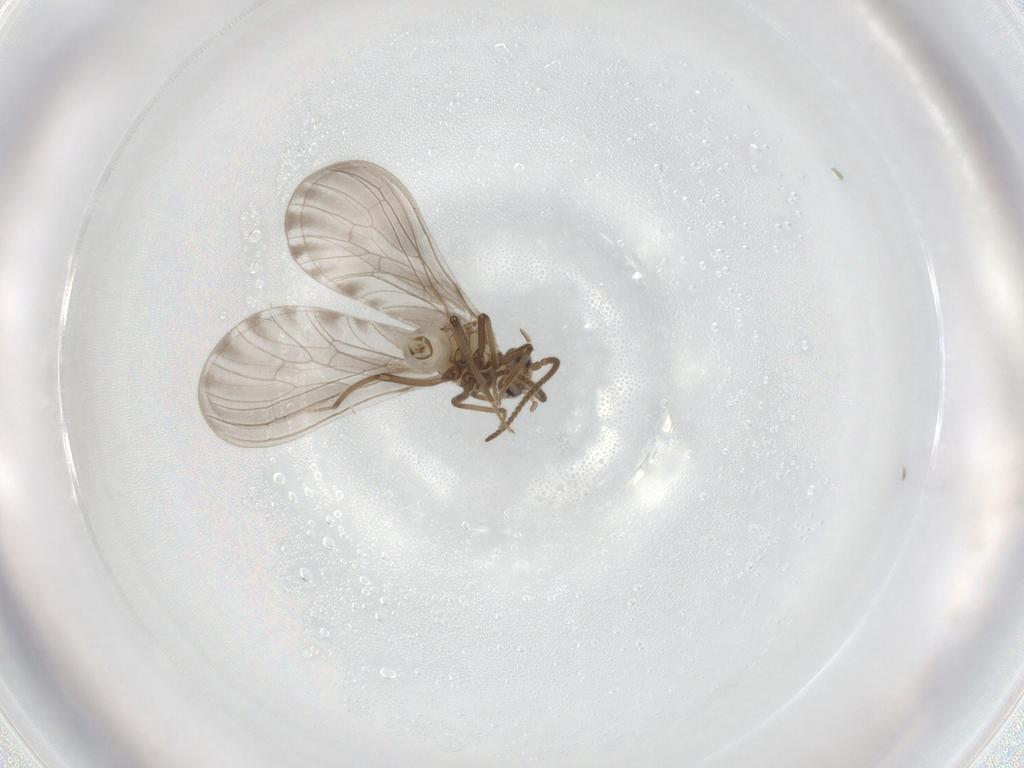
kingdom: Animalia
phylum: Arthropoda
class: Insecta
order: Neuroptera
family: Coniopterygidae
